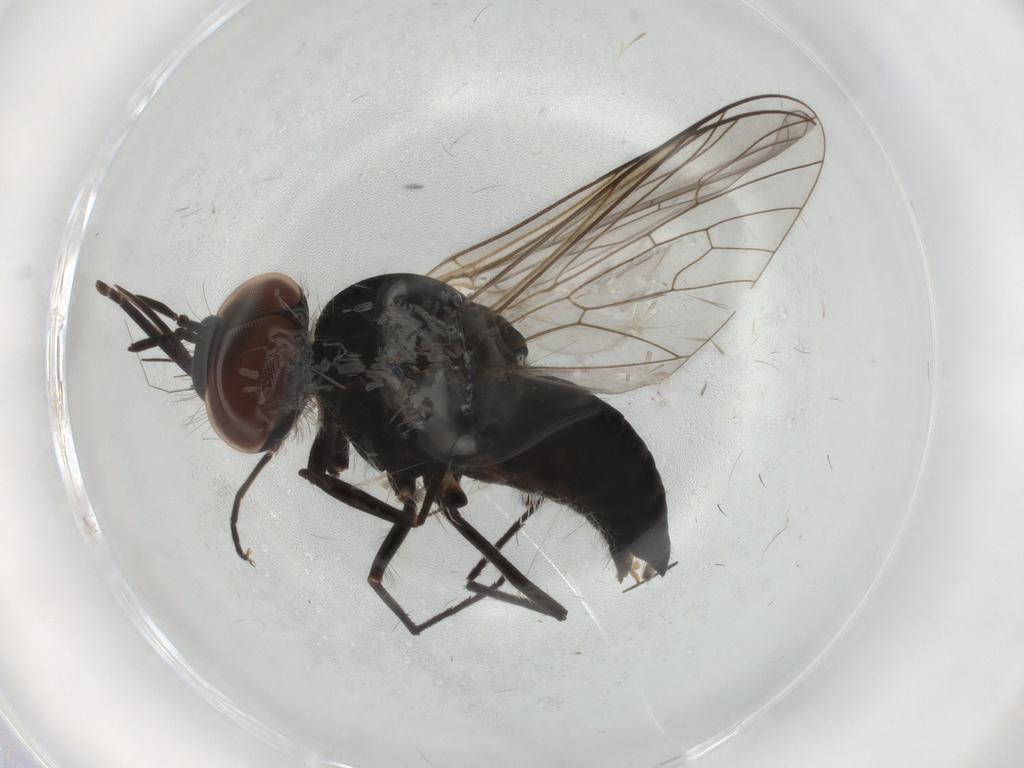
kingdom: Animalia
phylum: Arthropoda
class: Insecta
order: Diptera
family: Bombyliidae
